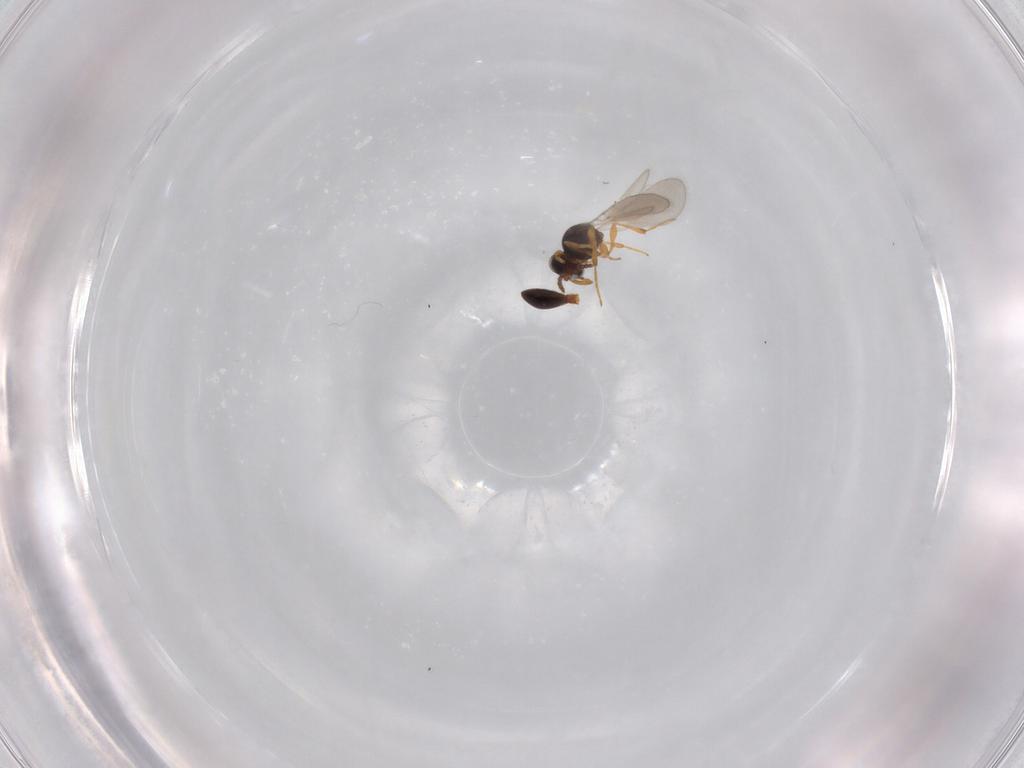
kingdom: Animalia
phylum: Arthropoda
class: Insecta
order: Hymenoptera
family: Platygastridae
